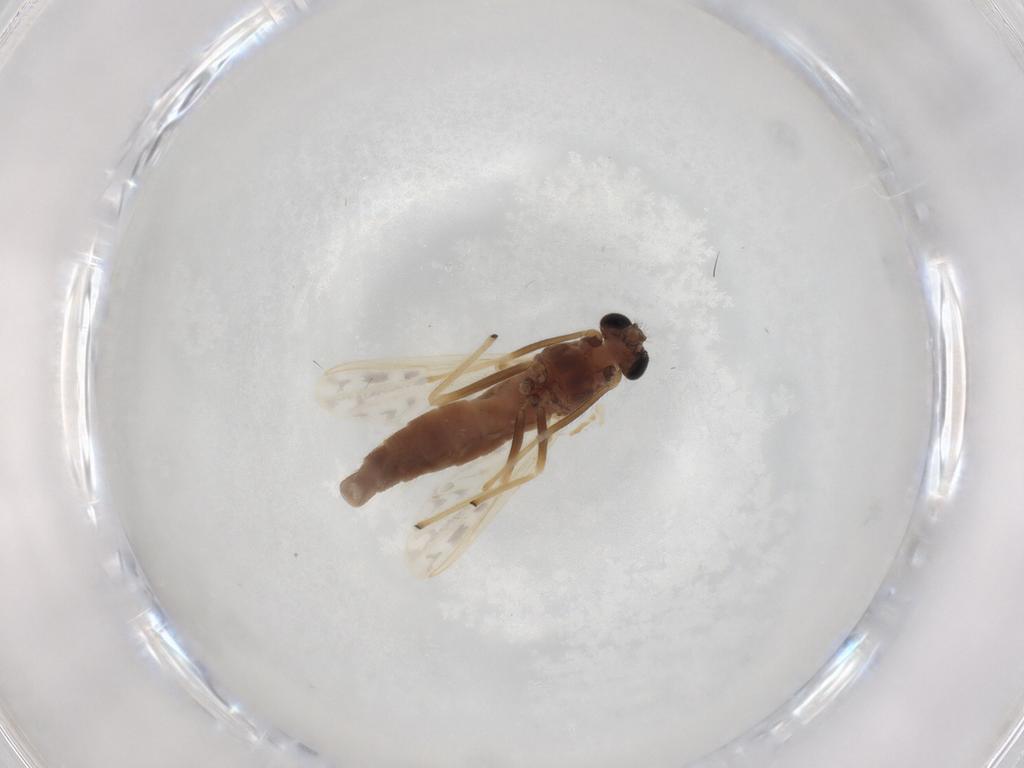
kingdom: Animalia
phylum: Arthropoda
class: Insecta
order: Diptera
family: Chironomidae
